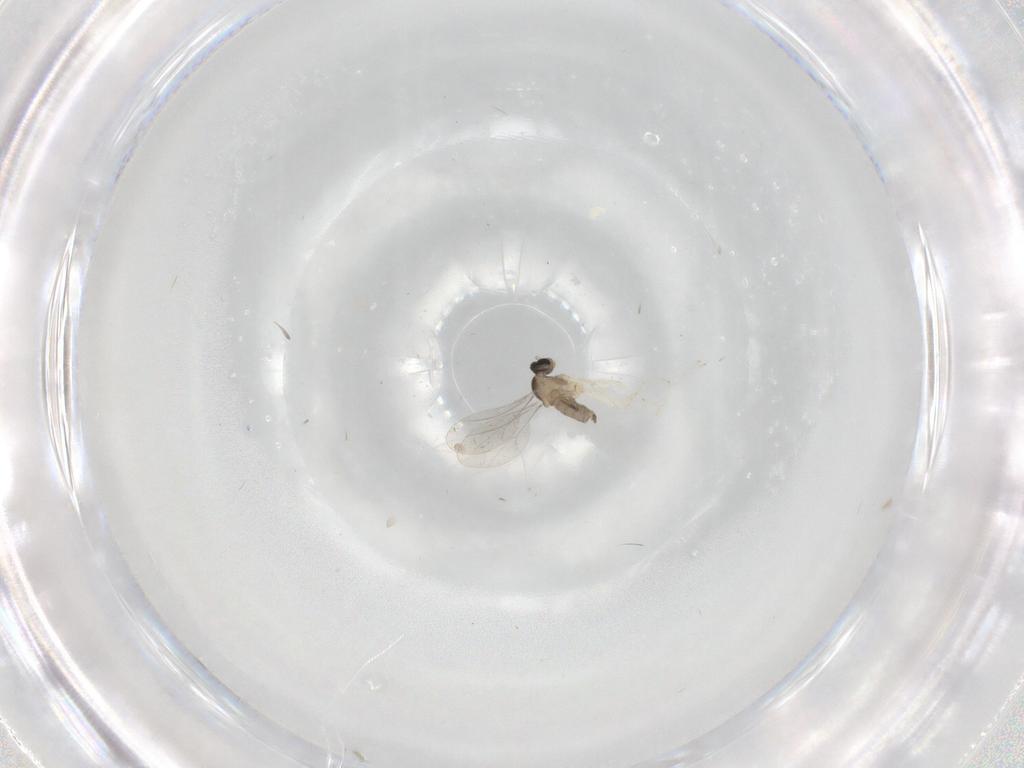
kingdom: Animalia
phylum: Arthropoda
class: Insecta
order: Diptera
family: Cecidomyiidae
